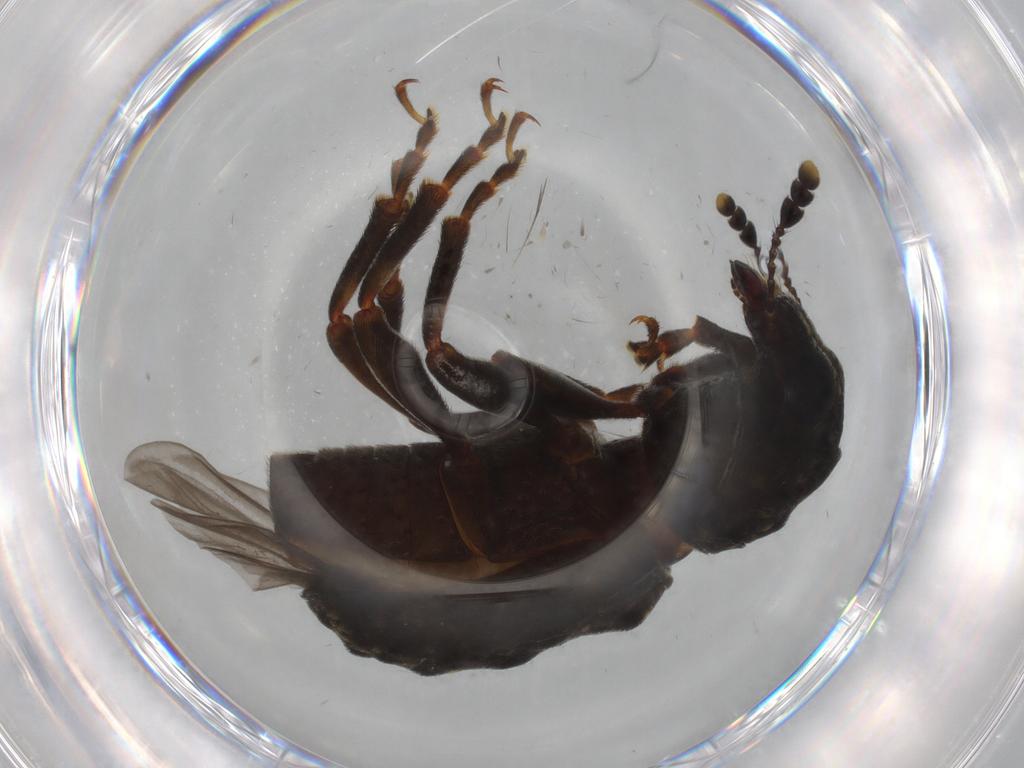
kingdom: Animalia
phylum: Arthropoda
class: Insecta
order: Coleoptera
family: Anthribidae
